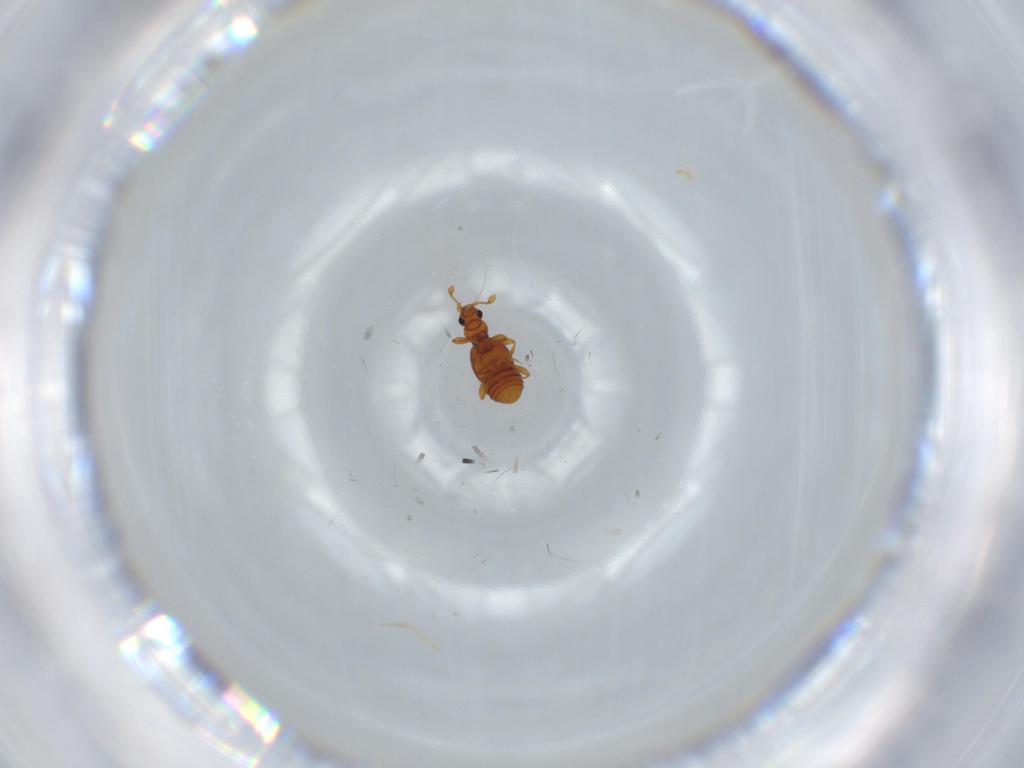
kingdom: Animalia
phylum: Arthropoda
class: Insecta
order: Coleoptera
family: Staphylinidae
